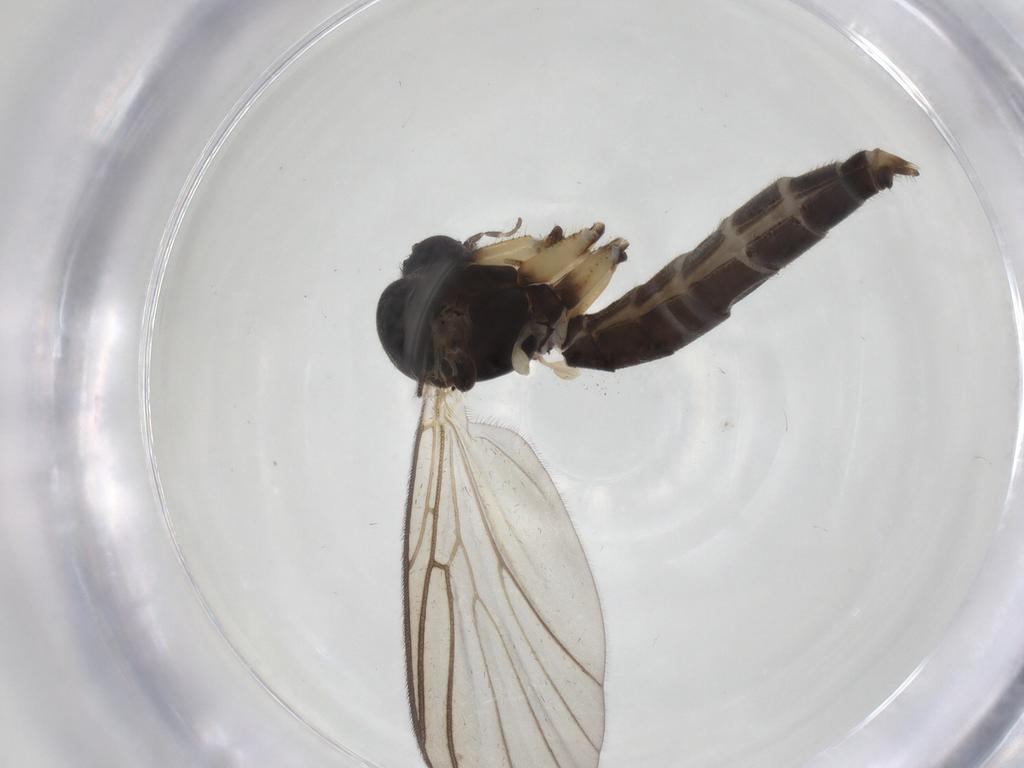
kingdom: Animalia
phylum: Arthropoda
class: Insecta
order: Diptera
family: Mycetophilidae
